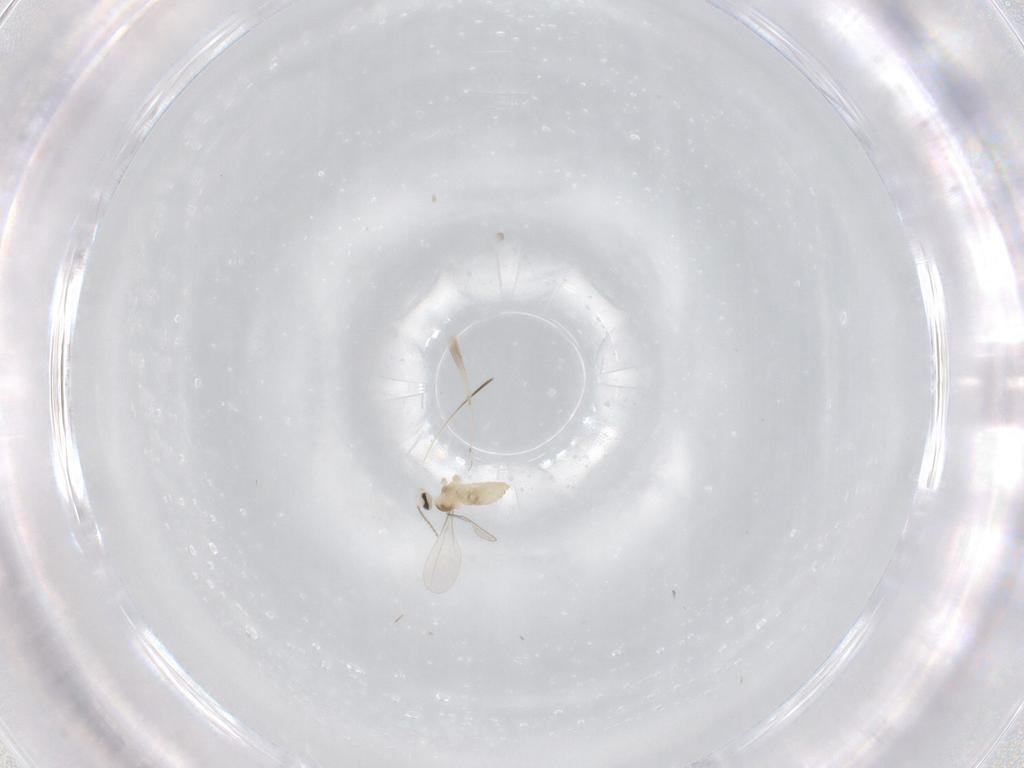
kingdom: Animalia
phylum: Arthropoda
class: Insecta
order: Diptera
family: Cecidomyiidae
